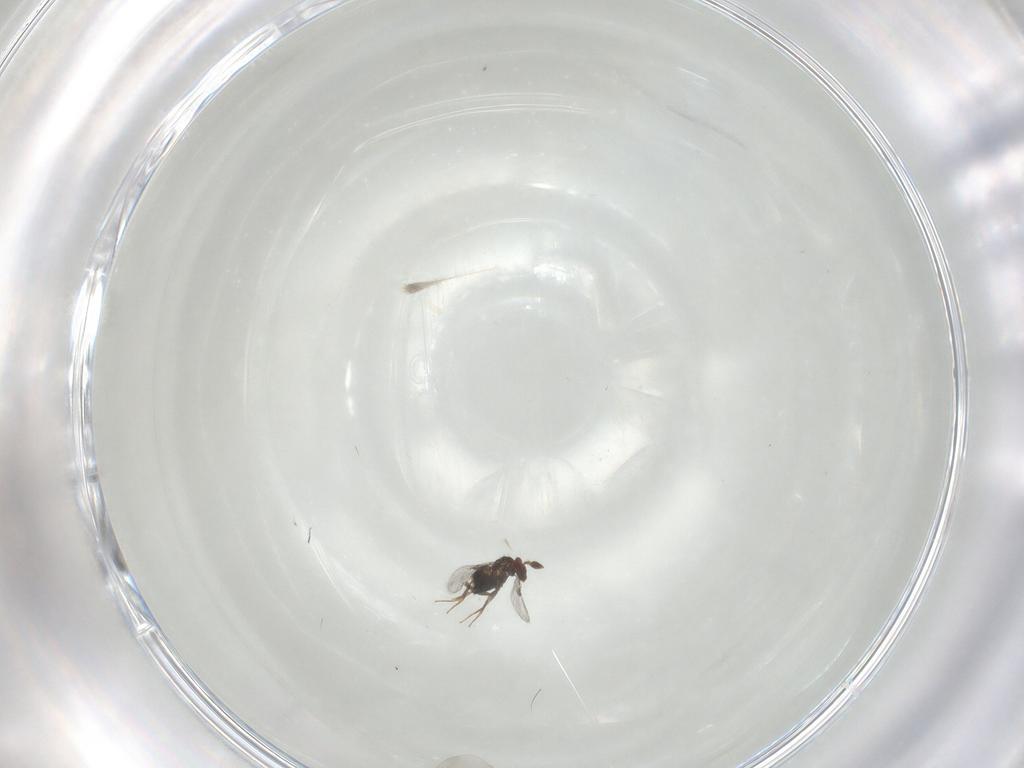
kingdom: Animalia
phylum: Arthropoda
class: Insecta
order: Hymenoptera
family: Trichogrammatidae
